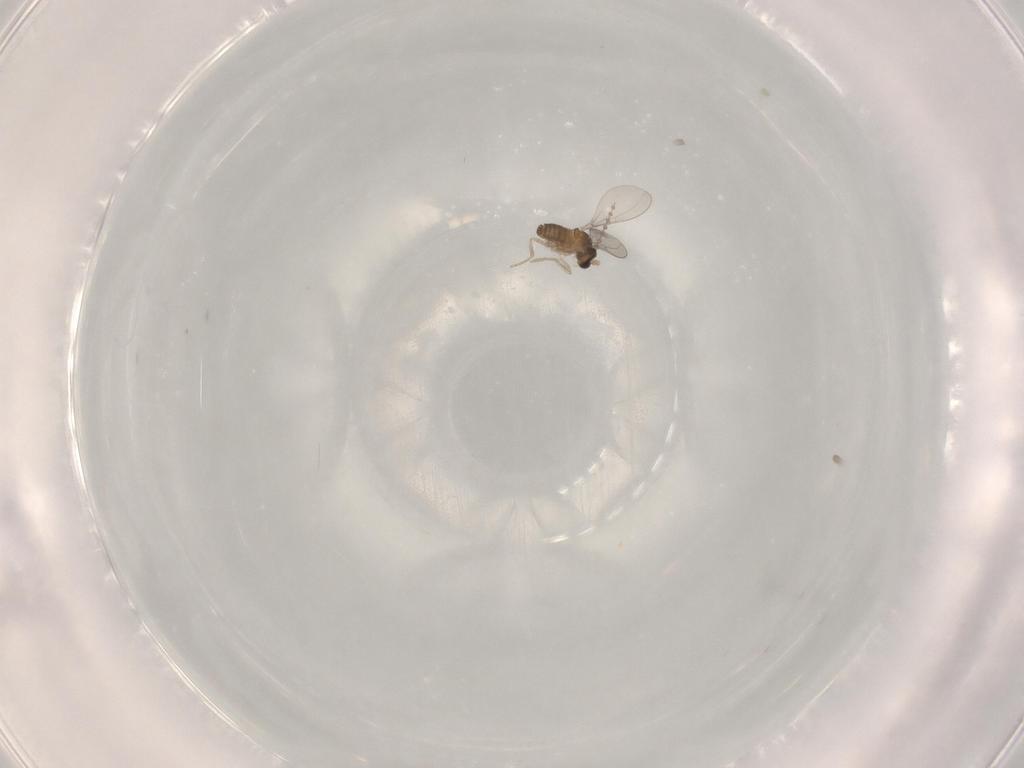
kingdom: Animalia
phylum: Arthropoda
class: Insecta
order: Diptera
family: Cecidomyiidae
